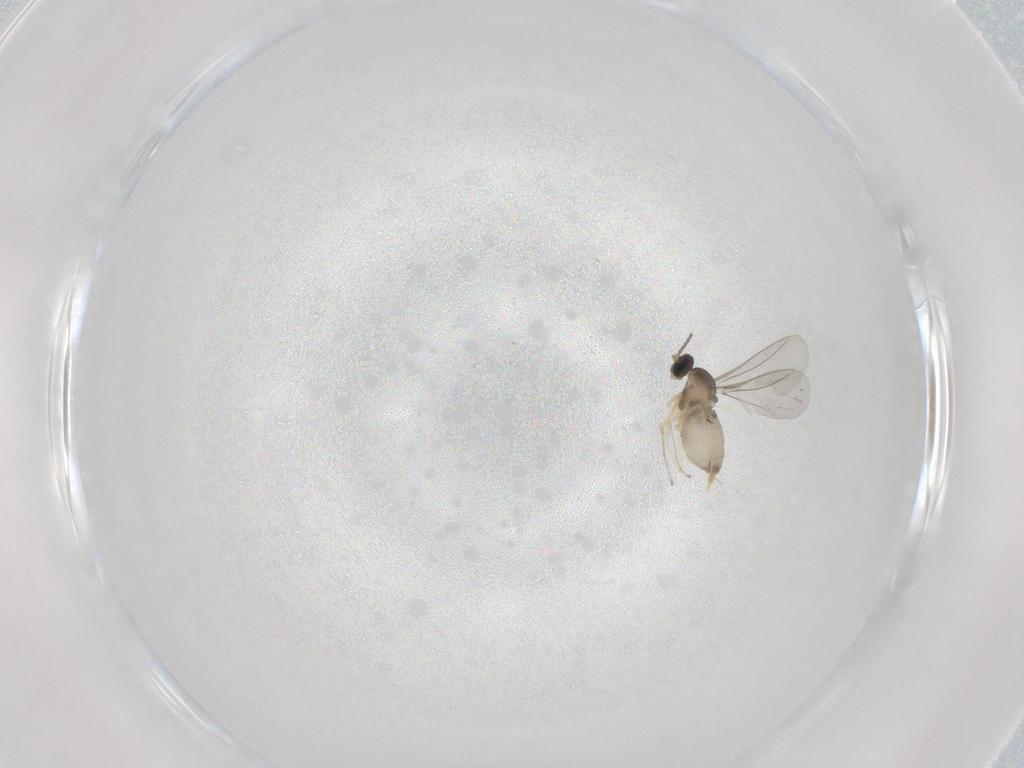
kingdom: Animalia
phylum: Arthropoda
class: Insecta
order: Diptera
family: Cecidomyiidae
